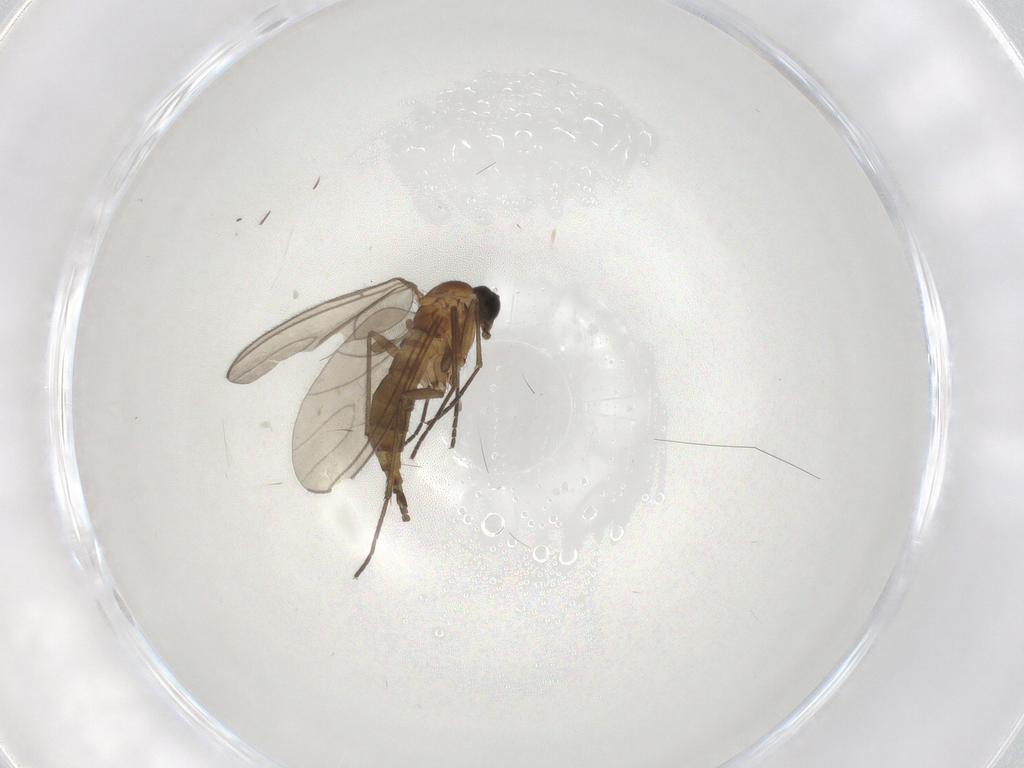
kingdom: Animalia
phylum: Arthropoda
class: Insecta
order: Diptera
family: Sciaridae
